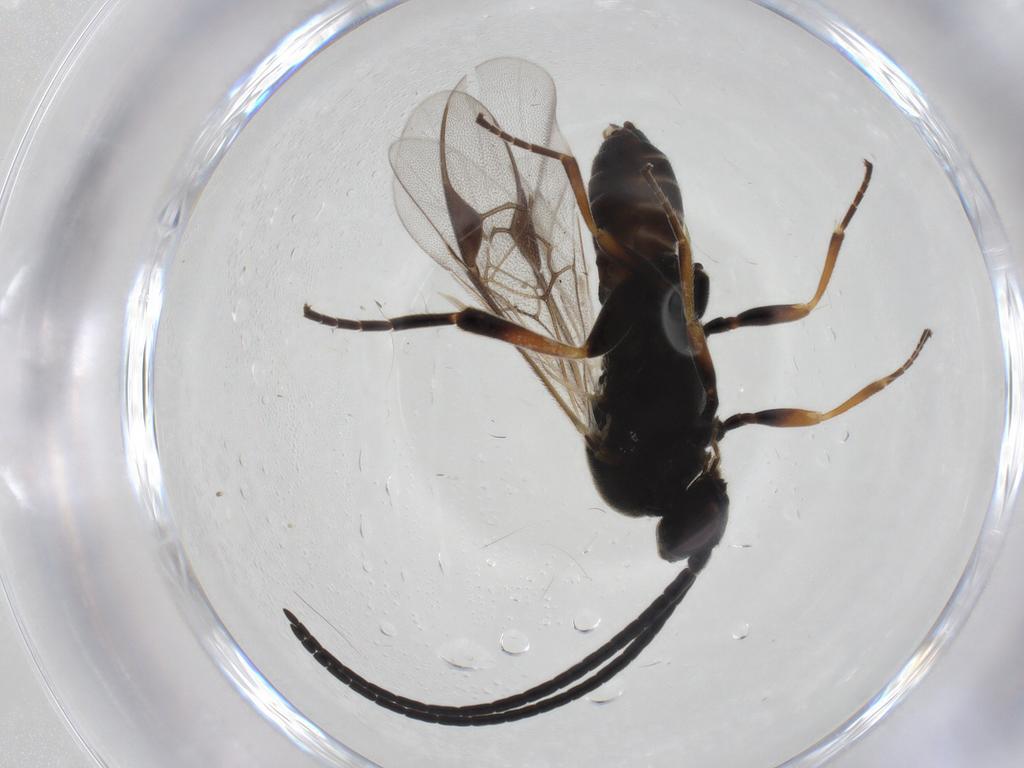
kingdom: Animalia
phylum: Arthropoda
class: Insecta
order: Hymenoptera
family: Braconidae
